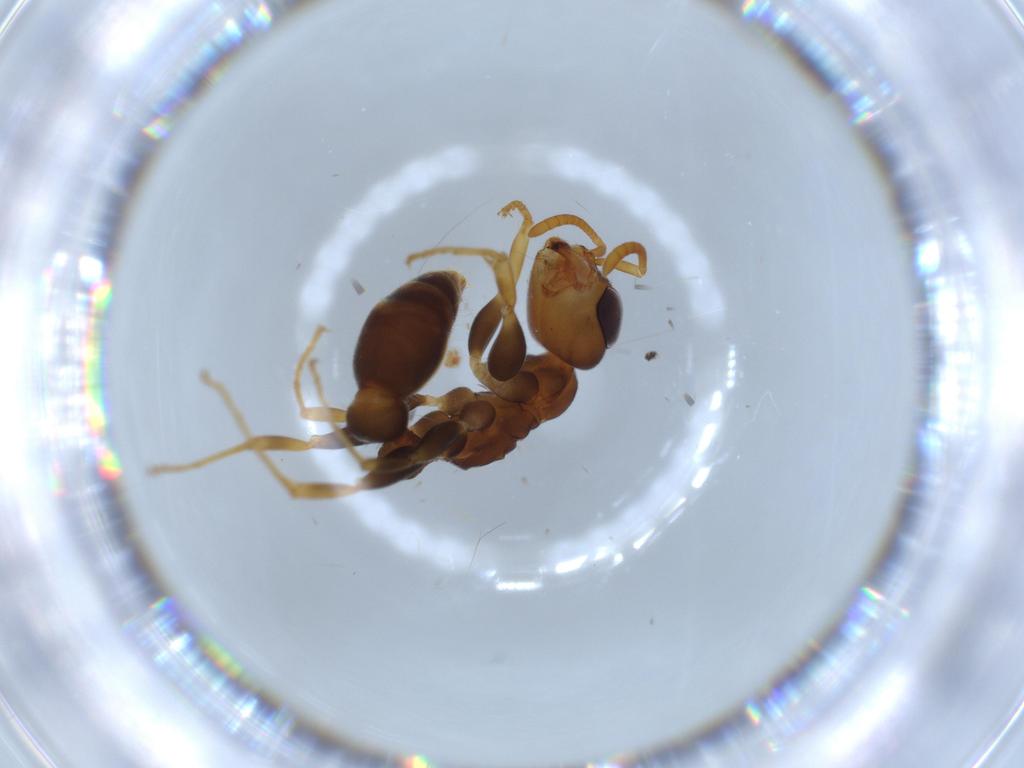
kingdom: Animalia
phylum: Arthropoda
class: Insecta
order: Hymenoptera
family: Formicidae
